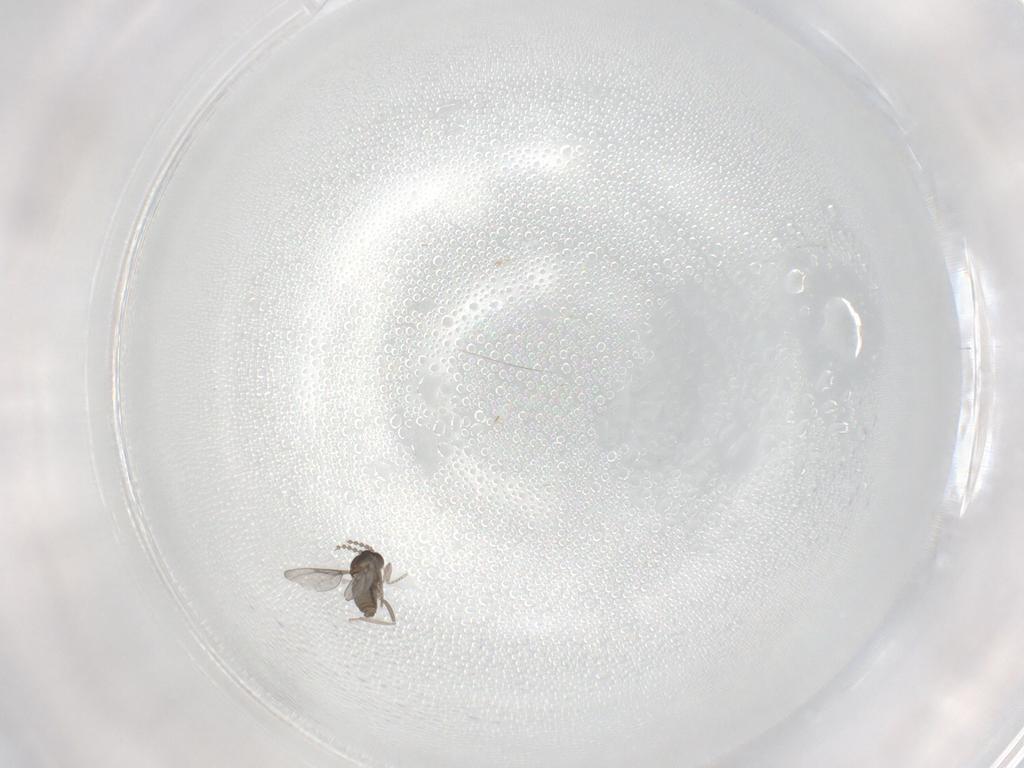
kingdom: Animalia
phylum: Arthropoda
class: Insecta
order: Diptera
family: Cecidomyiidae
